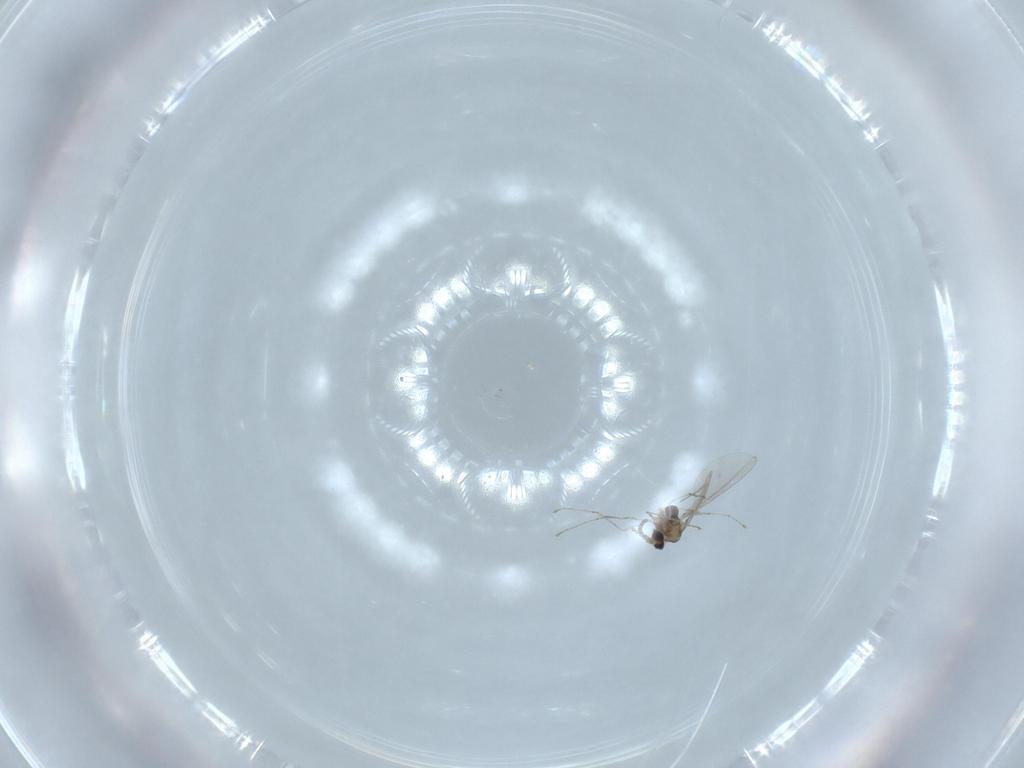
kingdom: Animalia
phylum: Arthropoda
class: Insecta
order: Diptera
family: Cecidomyiidae
